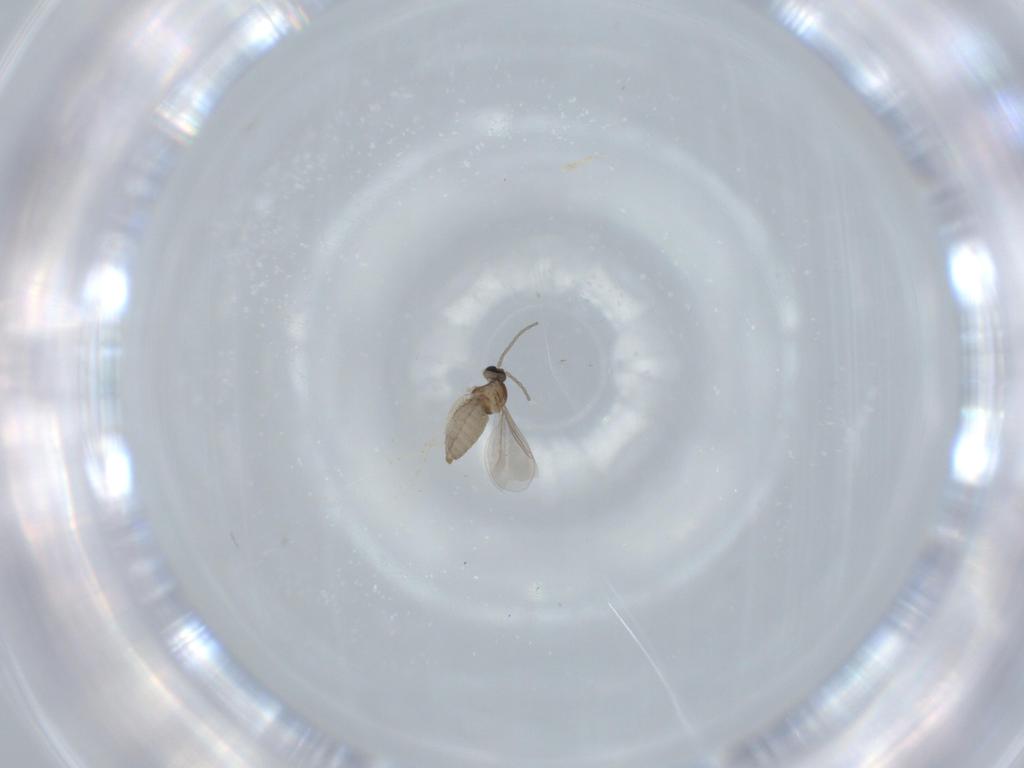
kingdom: Animalia
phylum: Arthropoda
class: Insecta
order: Diptera
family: Cecidomyiidae
